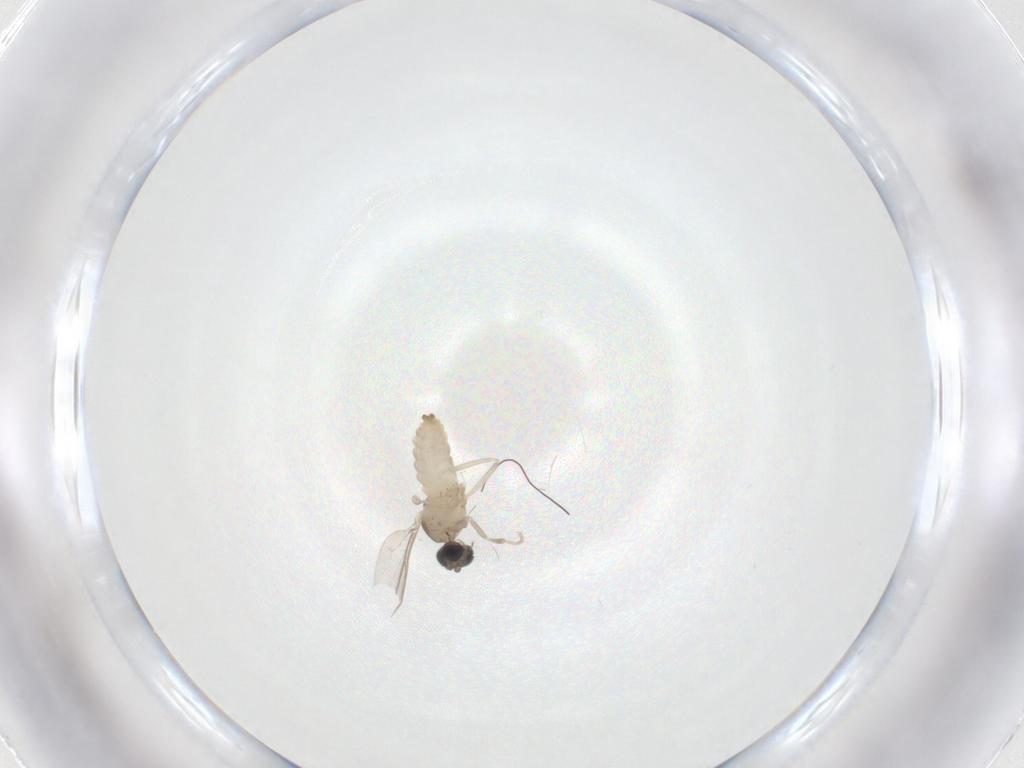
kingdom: Animalia
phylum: Arthropoda
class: Insecta
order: Diptera
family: Cecidomyiidae
